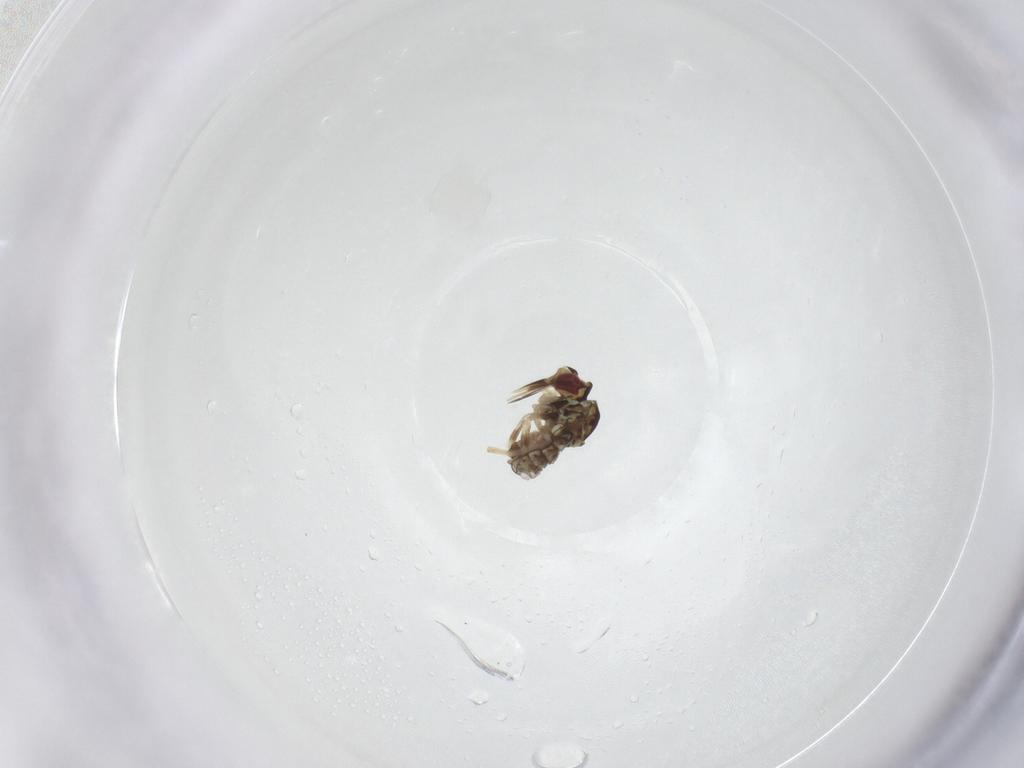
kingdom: Animalia
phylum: Arthropoda
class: Insecta
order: Diptera
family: Bombyliidae
